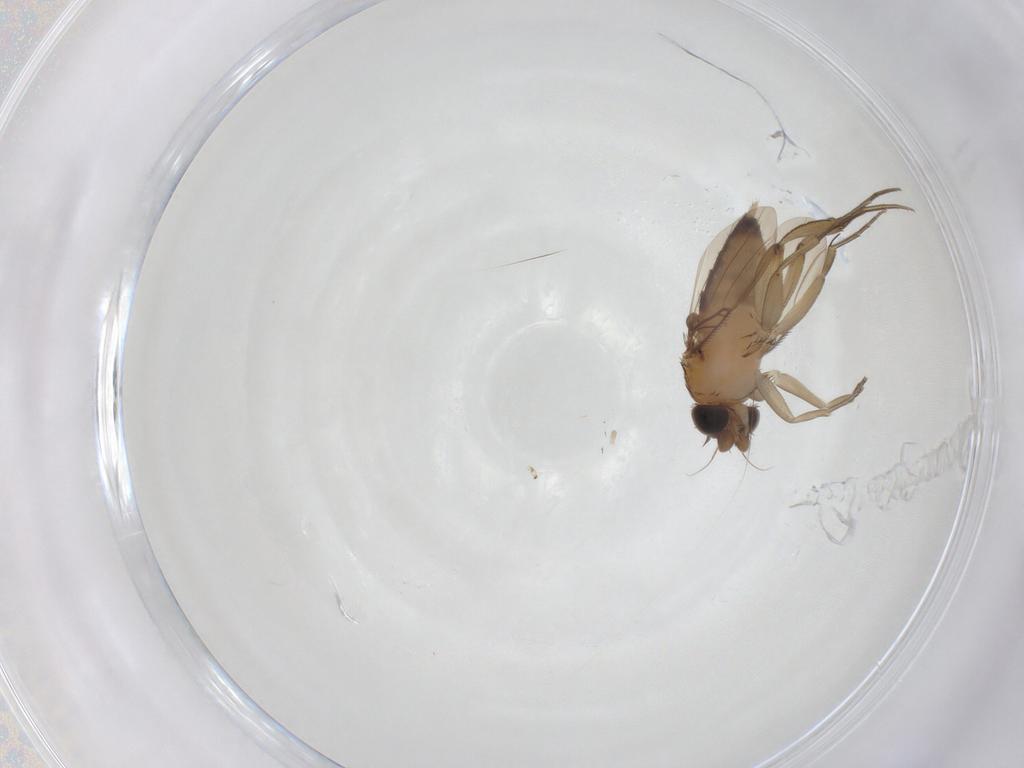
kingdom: Animalia
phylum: Arthropoda
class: Insecta
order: Diptera
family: Phoridae
